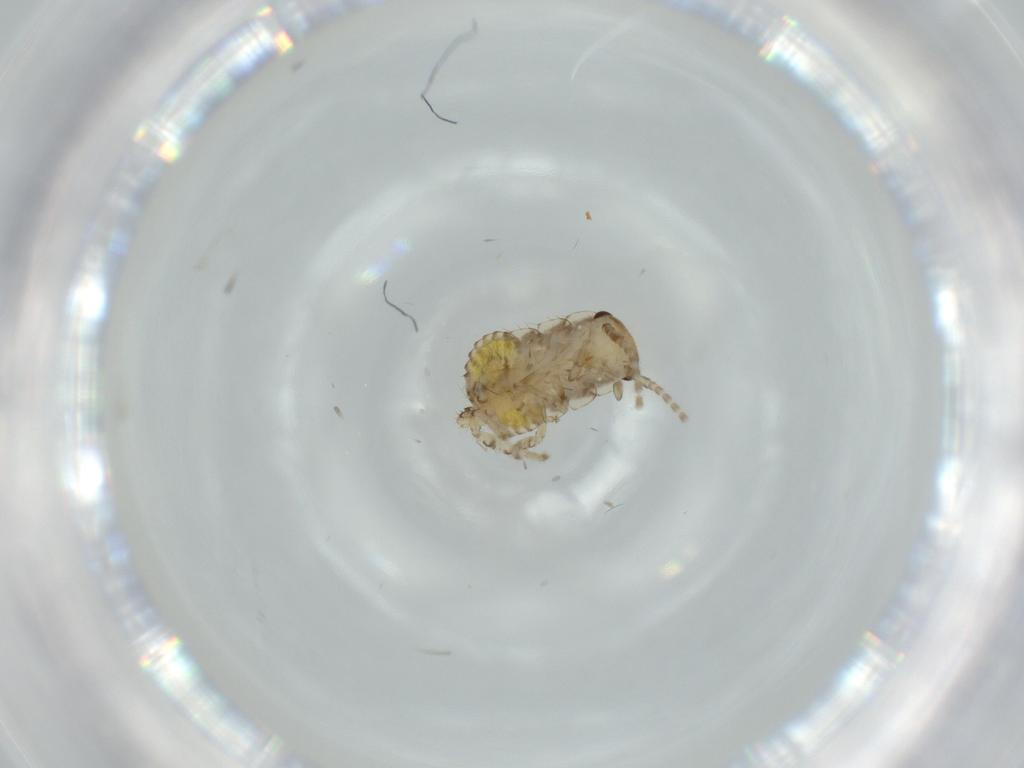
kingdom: Animalia
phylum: Arthropoda
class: Insecta
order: Blattodea
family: Ectobiidae
